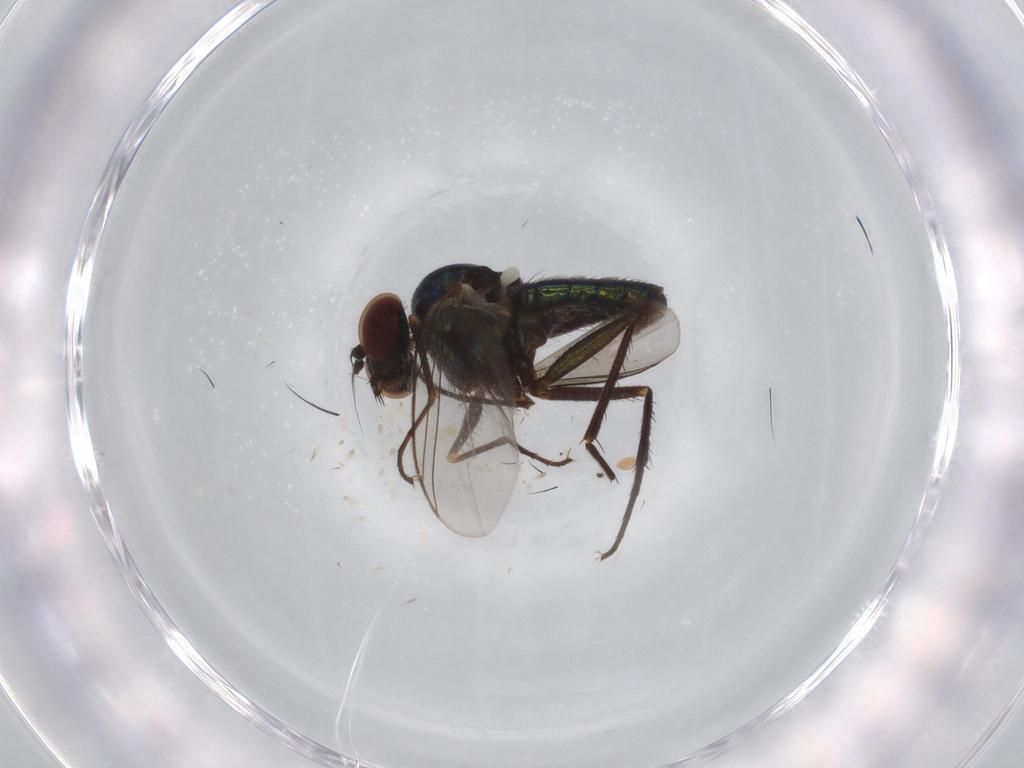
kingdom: Animalia
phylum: Arthropoda
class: Insecta
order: Diptera
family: Dolichopodidae
